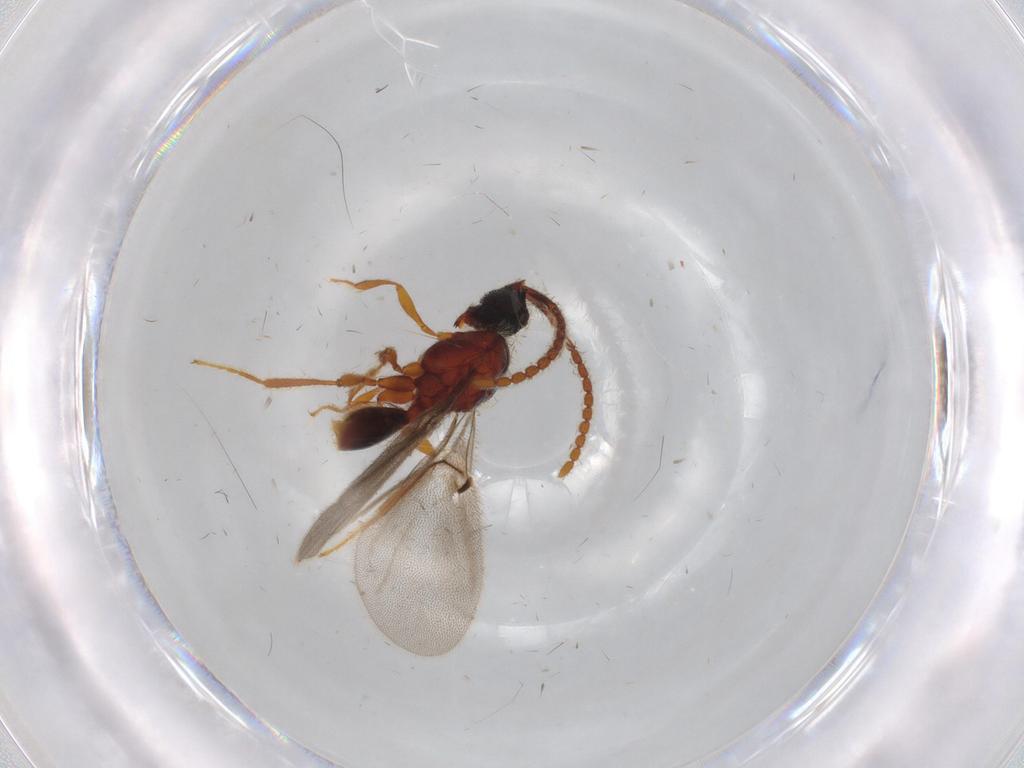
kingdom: Animalia
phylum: Arthropoda
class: Insecta
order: Hymenoptera
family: Diapriidae
